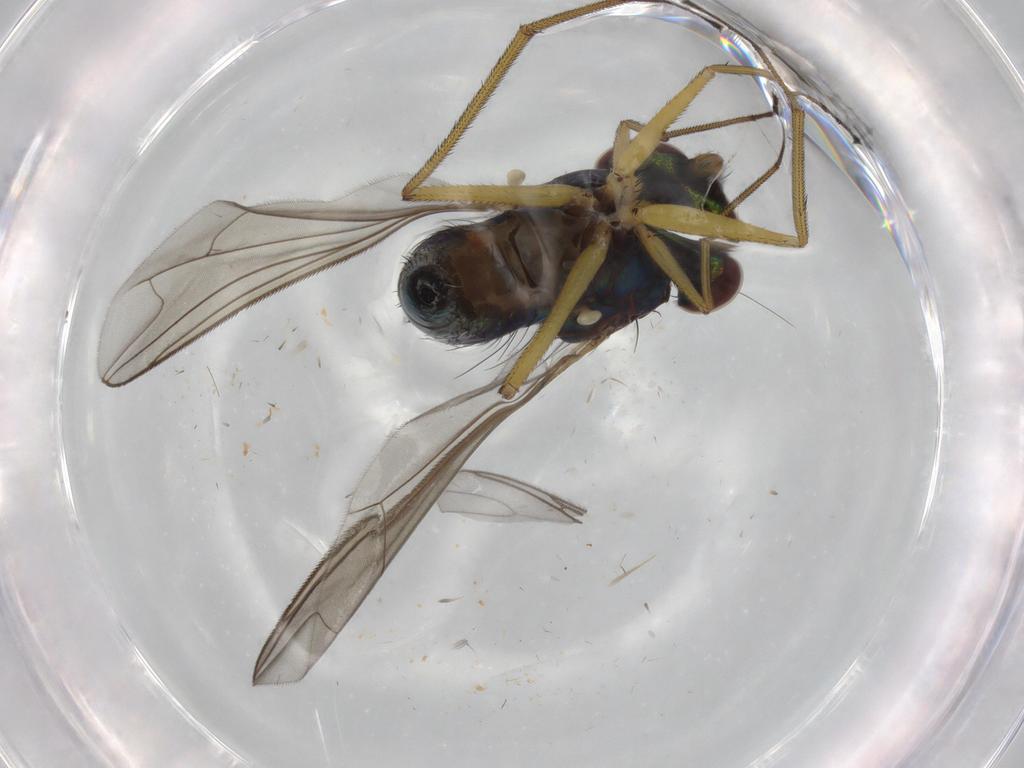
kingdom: Animalia
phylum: Arthropoda
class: Insecta
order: Diptera
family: Dolichopodidae
